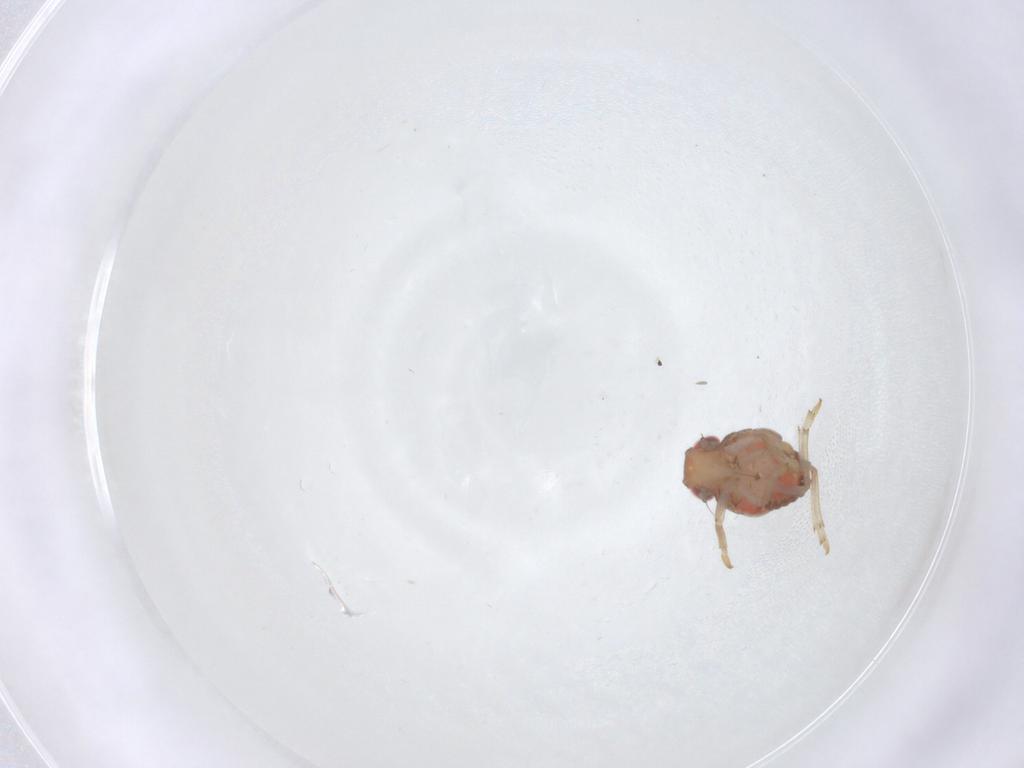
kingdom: Animalia
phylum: Arthropoda
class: Insecta
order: Hemiptera
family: Issidae
